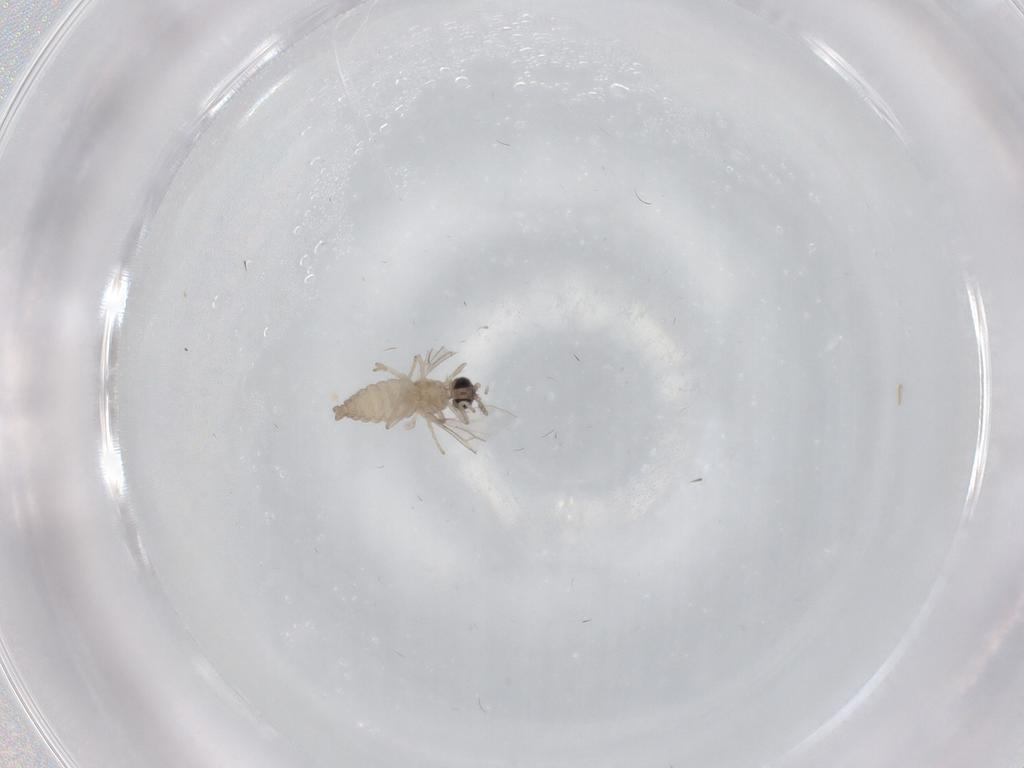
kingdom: Animalia
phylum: Arthropoda
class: Insecta
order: Diptera
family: Cecidomyiidae
